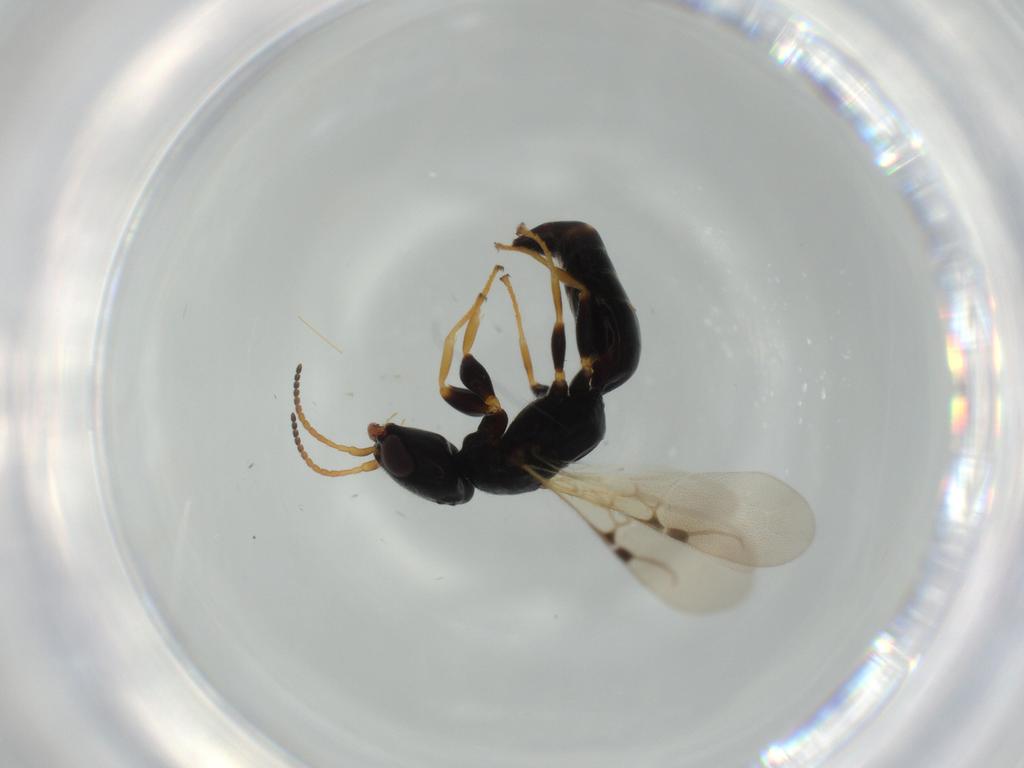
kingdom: Animalia
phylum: Arthropoda
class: Insecta
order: Hymenoptera
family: Bethylidae
